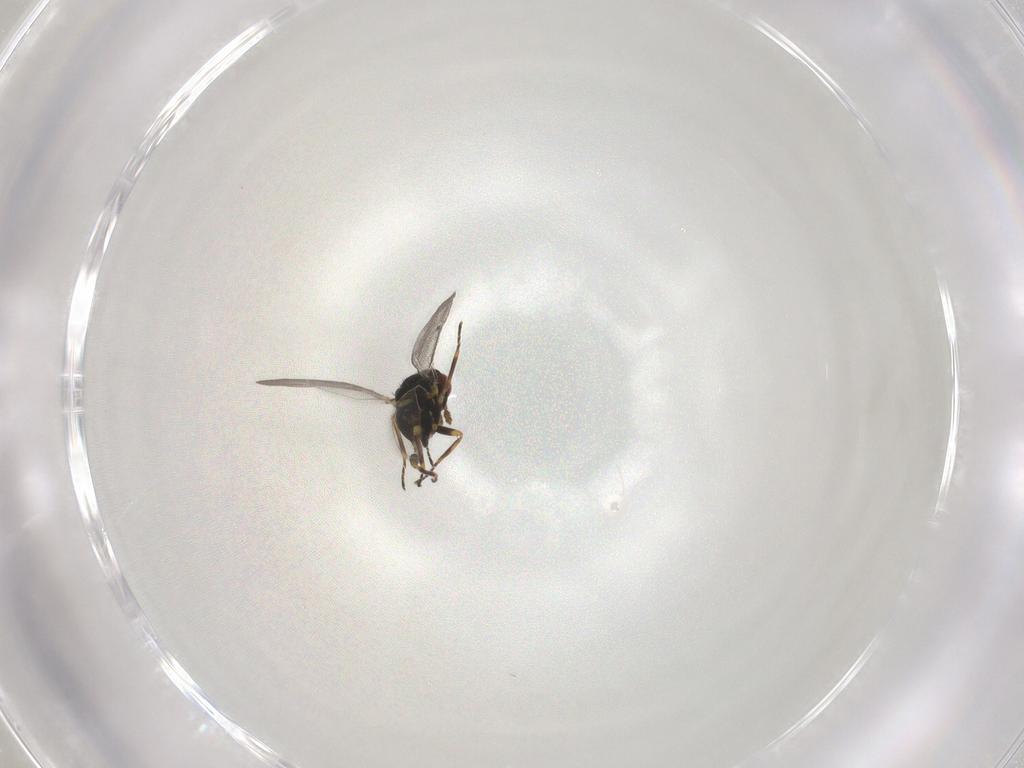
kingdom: Animalia
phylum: Arthropoda
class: Insecta
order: Hymenoptera
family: Eulophidae
